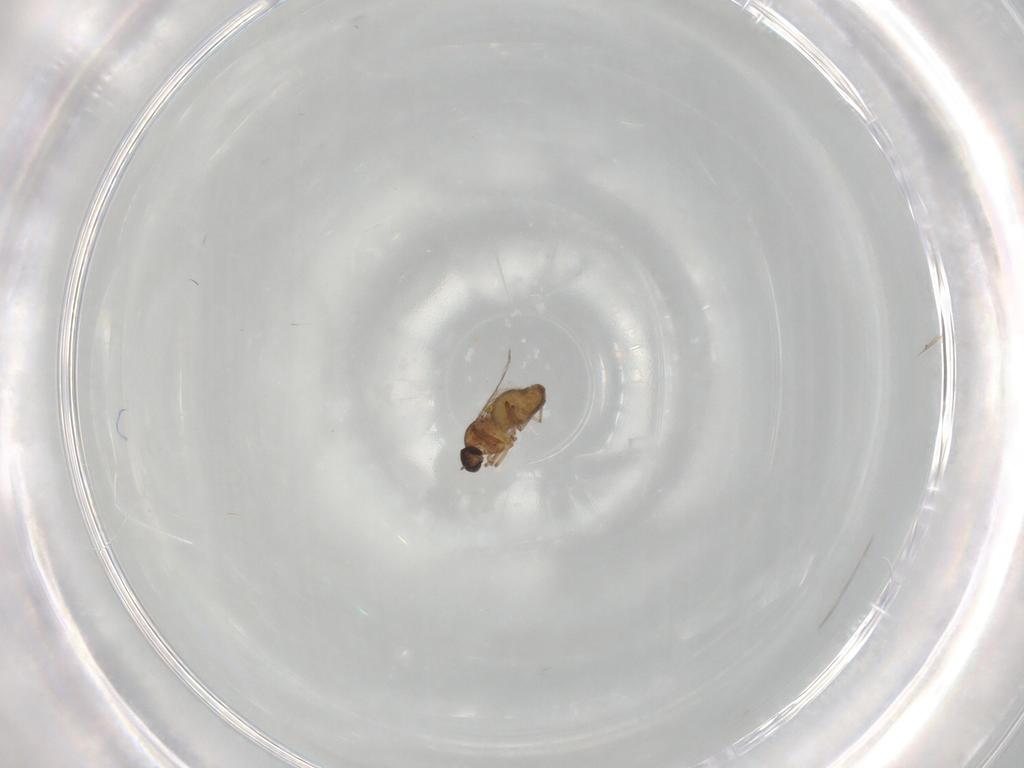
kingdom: Animalia
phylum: Arthropoda
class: Insecta
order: Diptera
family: Ceratopogonidae
